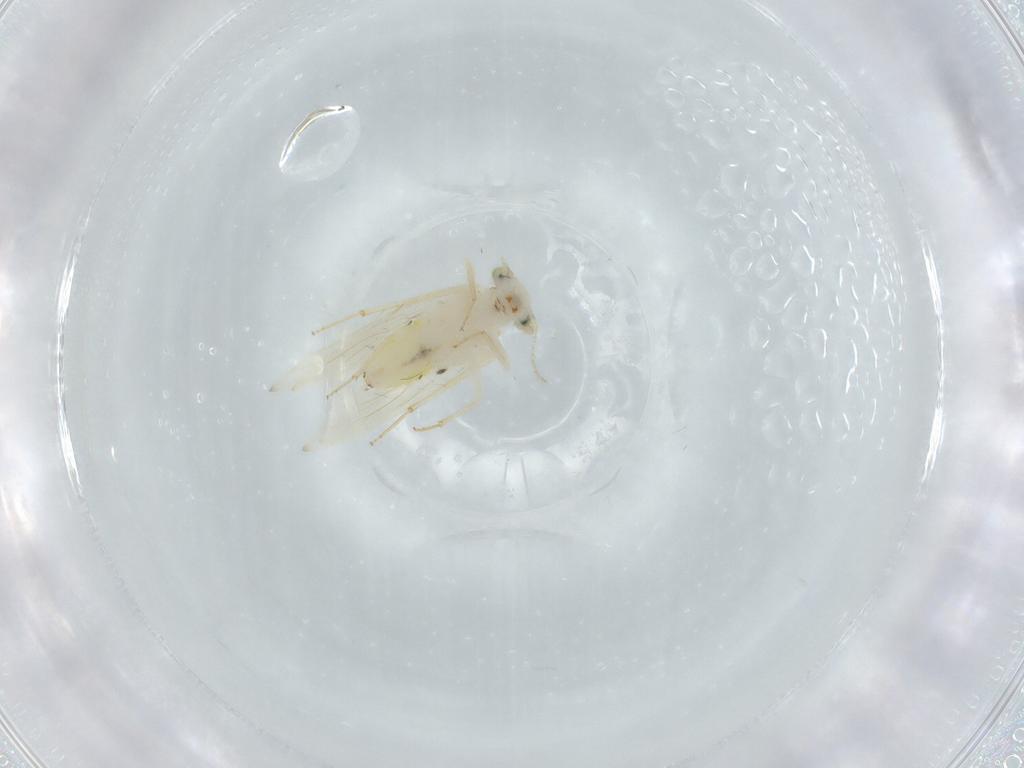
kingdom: Animalia
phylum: Arthropoda
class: Insecta
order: Psocodea
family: Lepidopsocidae
